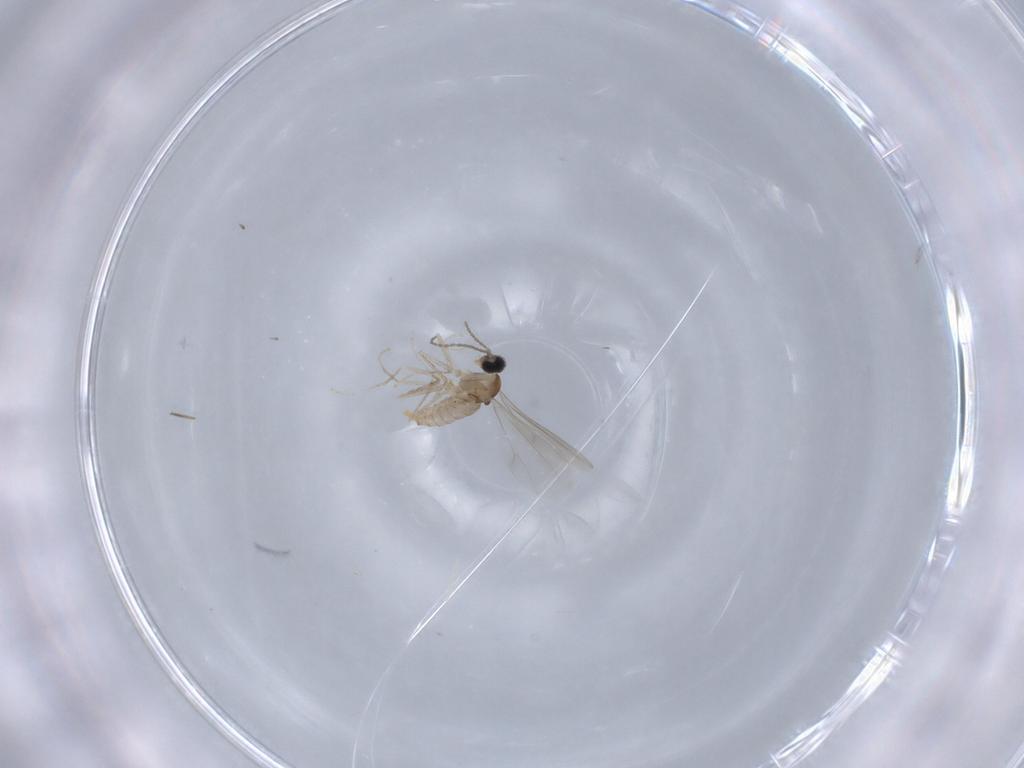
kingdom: Animalia
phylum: Arthropoda
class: Insecta
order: Diptera
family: Cecidomyiidae
